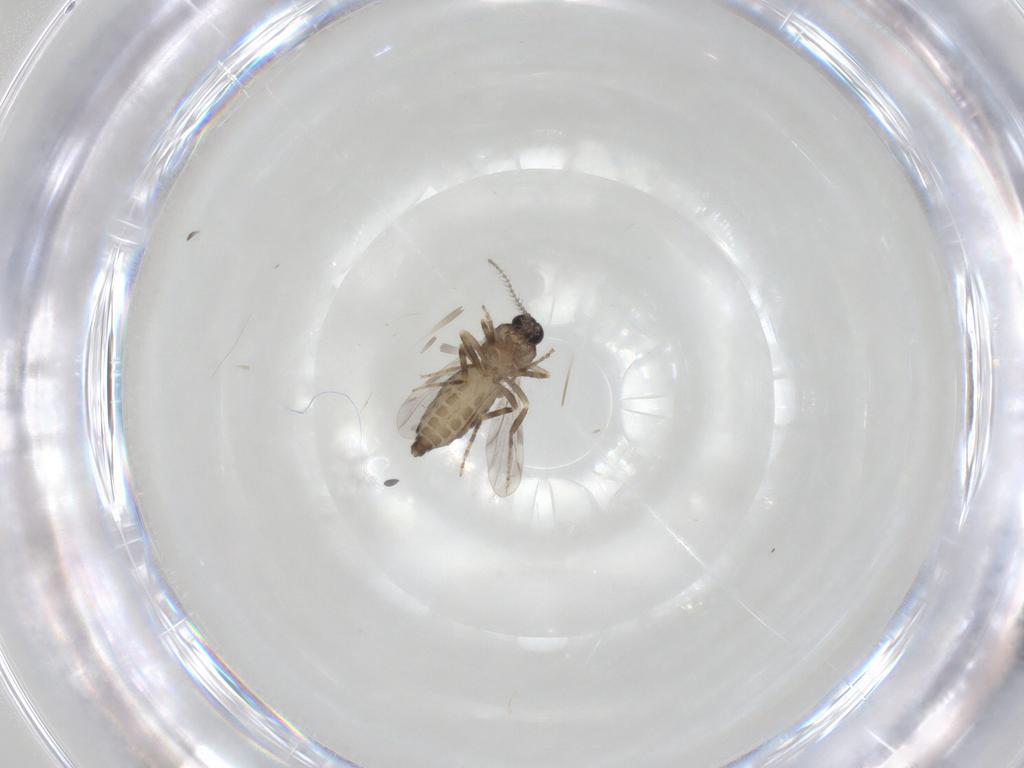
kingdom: Animalia
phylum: Arthropoda
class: Insecta
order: Diptera
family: Ceratopogonidae
